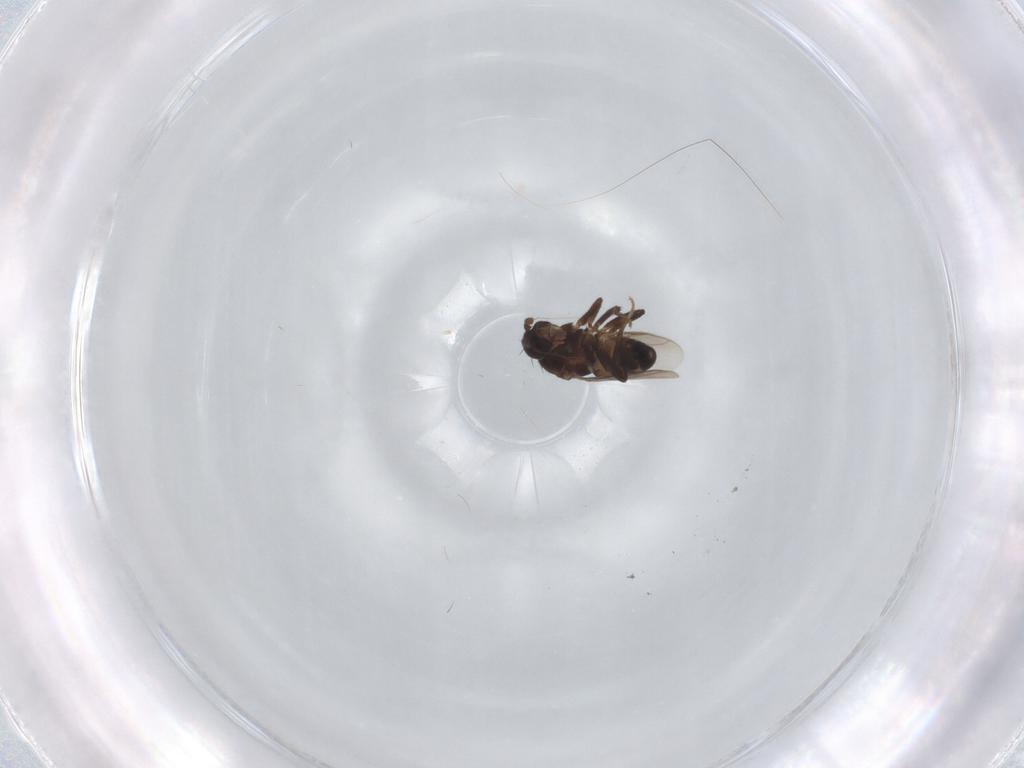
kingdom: Animalia
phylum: Arthropoda
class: Insecta
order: Diptera
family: Sphaeroceridae
